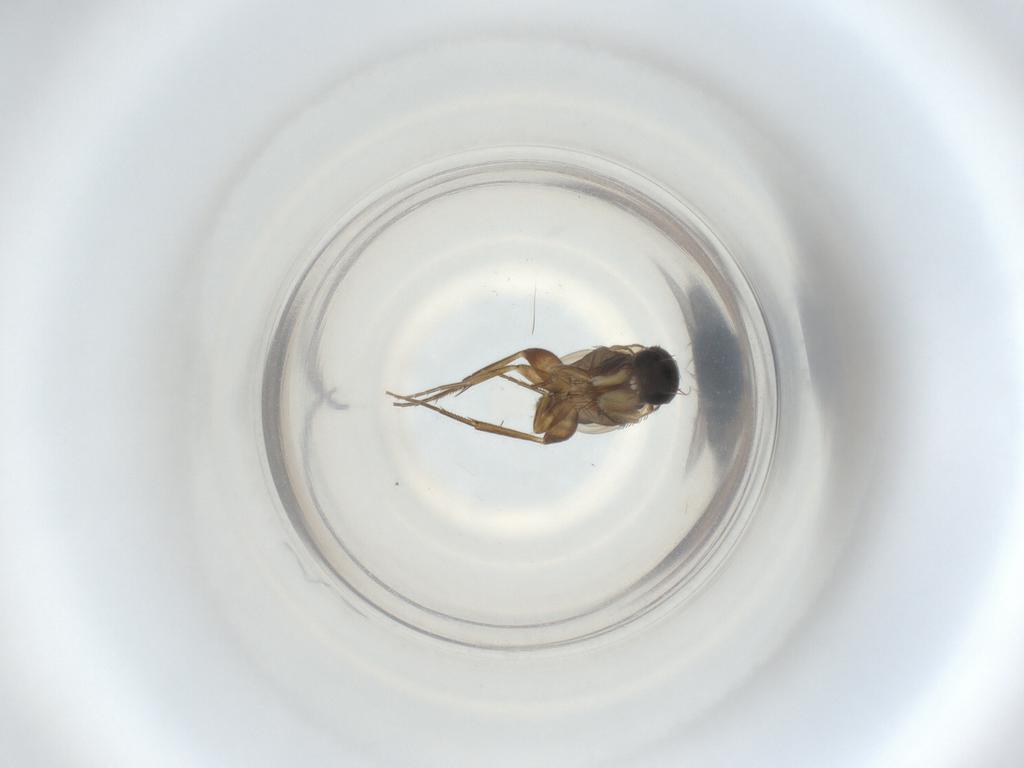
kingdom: Animalia
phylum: Arthropoda
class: Insecta
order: Diptera
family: Phoridae
